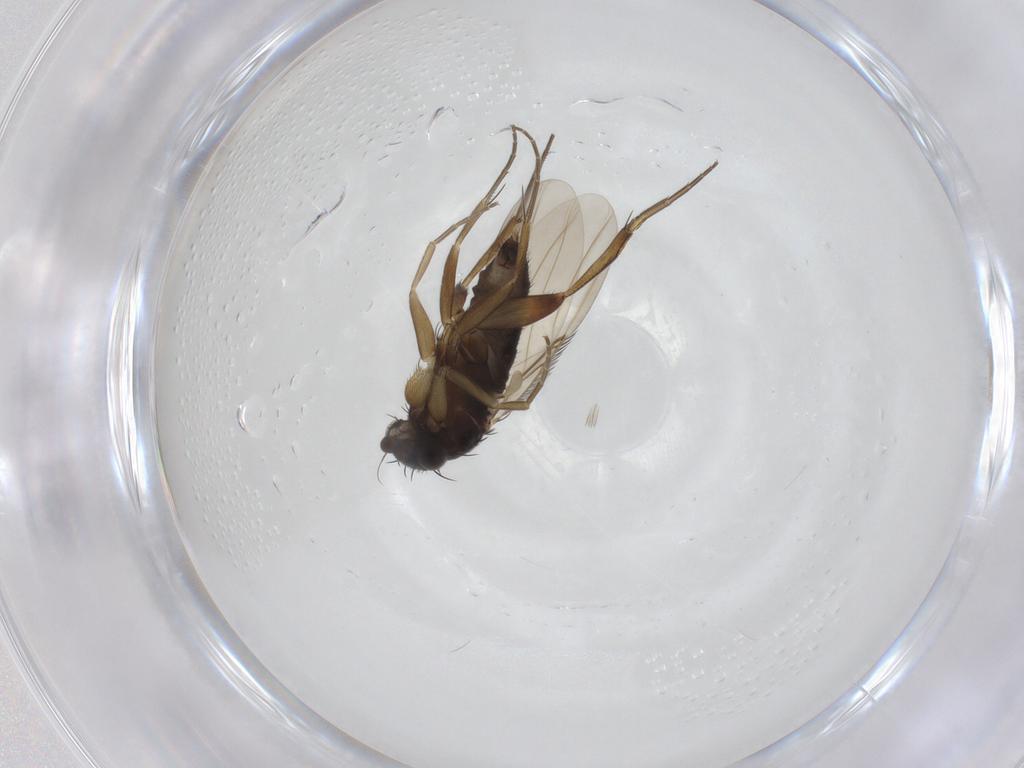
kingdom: Animalia
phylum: Arthropoda
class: Insecta
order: Diptera
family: Phoridae
